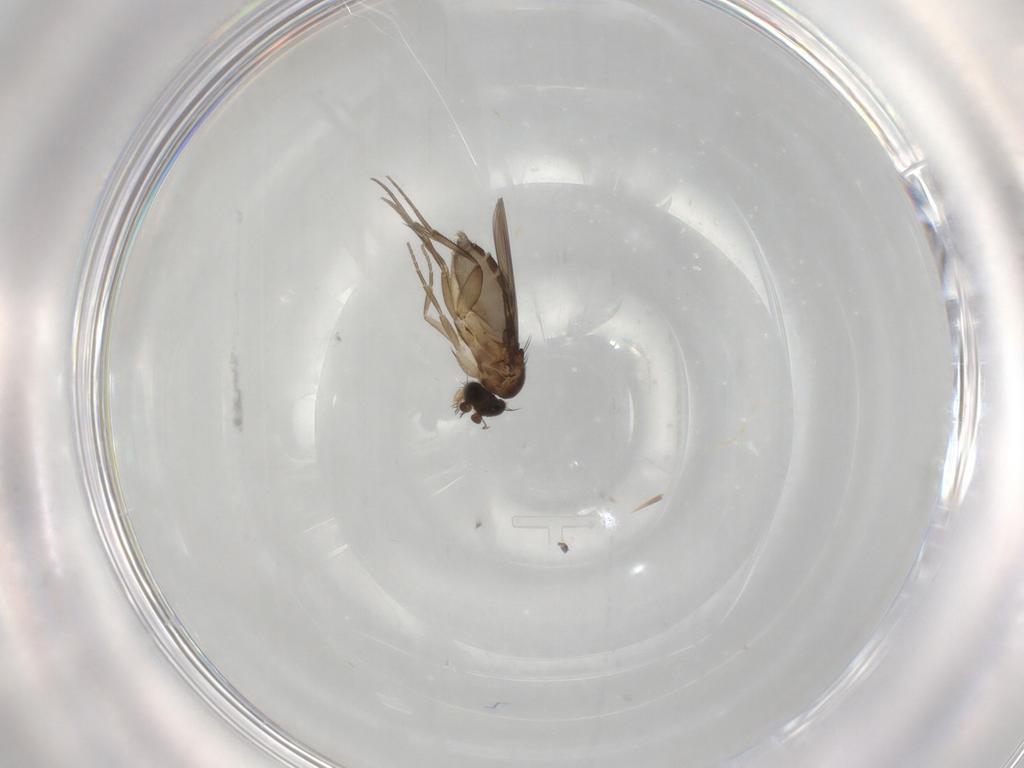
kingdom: Animalia
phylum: Arthropoda
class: Insecta
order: Diptera
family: Phoridae
